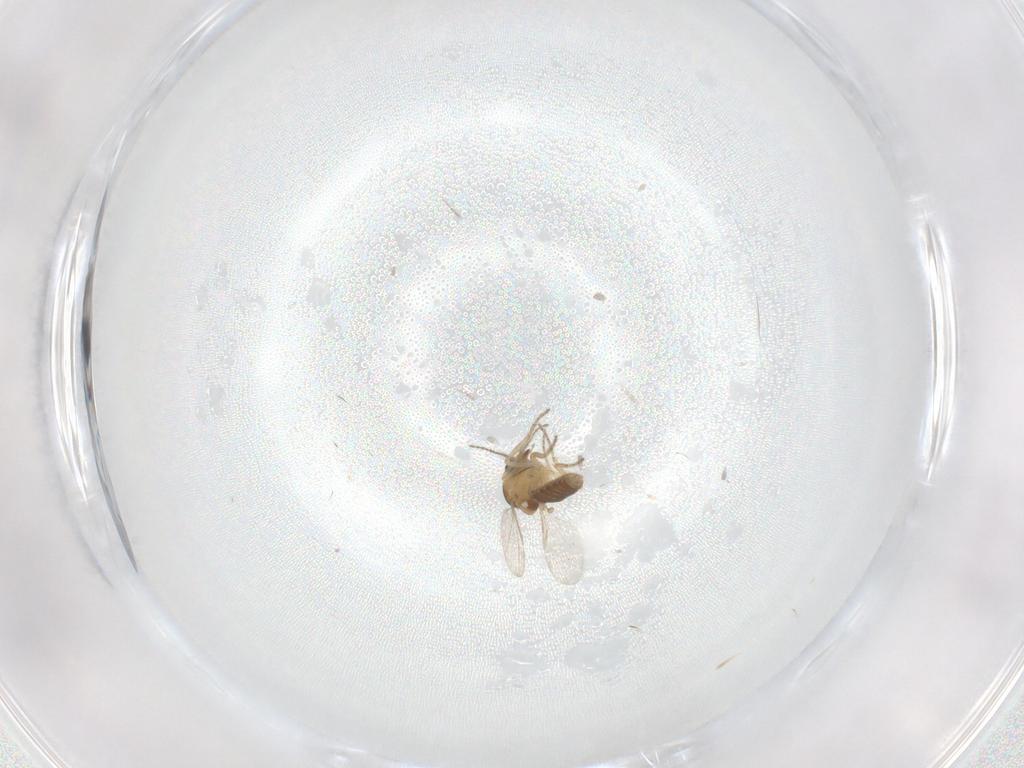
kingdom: Animalia
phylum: Arthropoda
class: Insecta
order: Diptera
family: Ceratopogonidae
